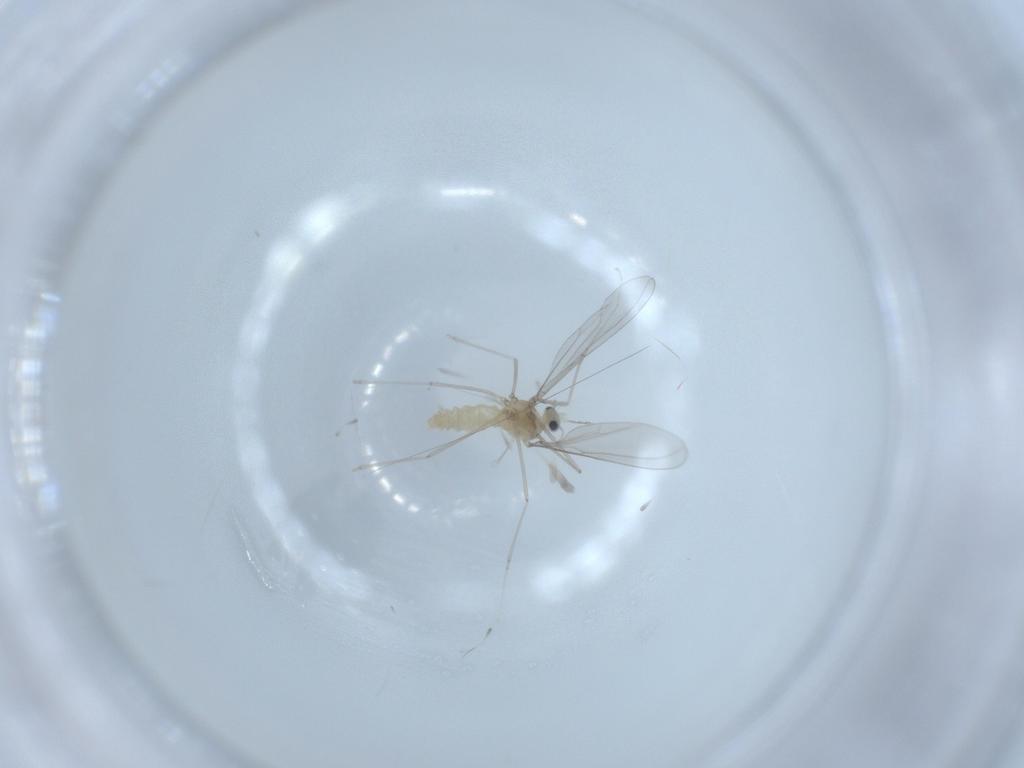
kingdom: Animalia
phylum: Arthropoda
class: Insecta
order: Diptera
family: Cecidomyiidae
